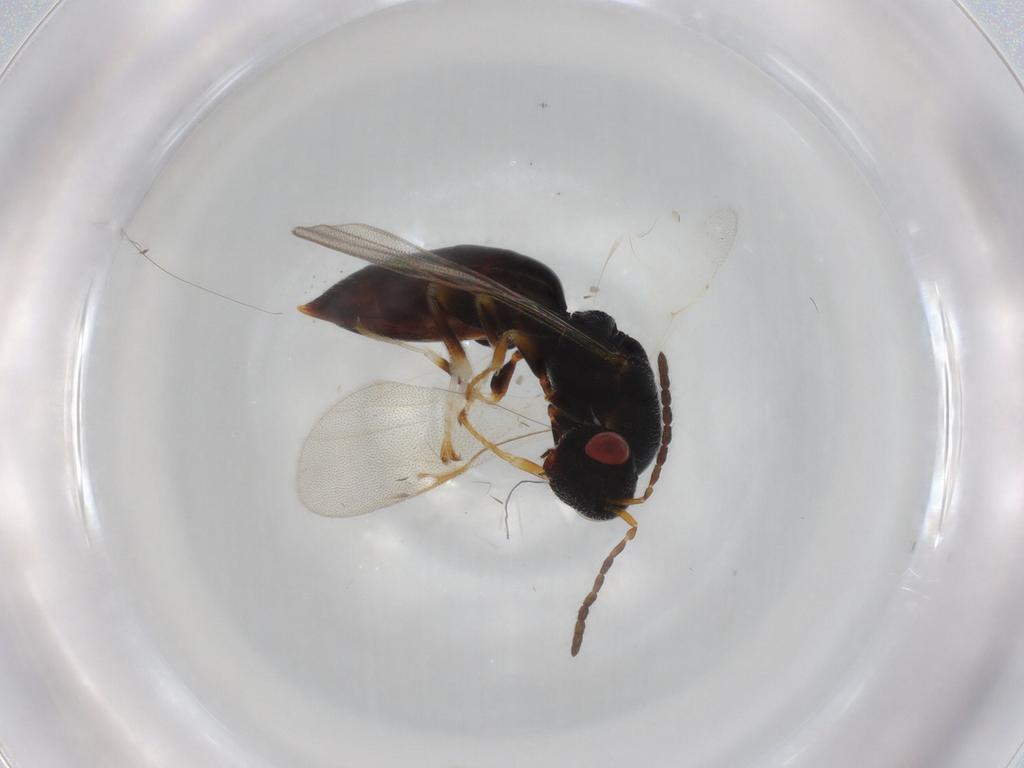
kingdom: Animalia
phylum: Arthropoda
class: Insecta
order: Hymenoptera
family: Eurytomidae
